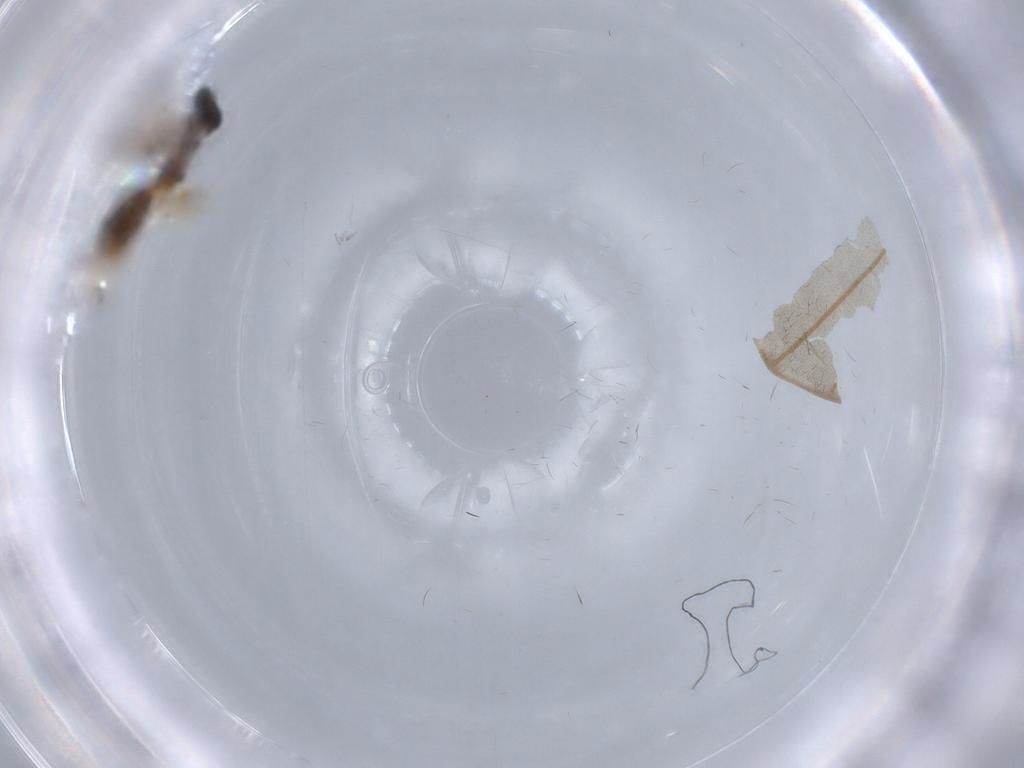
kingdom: Animalia
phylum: Arthropoda
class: Insecta
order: Hymenoptera
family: Braconidae
